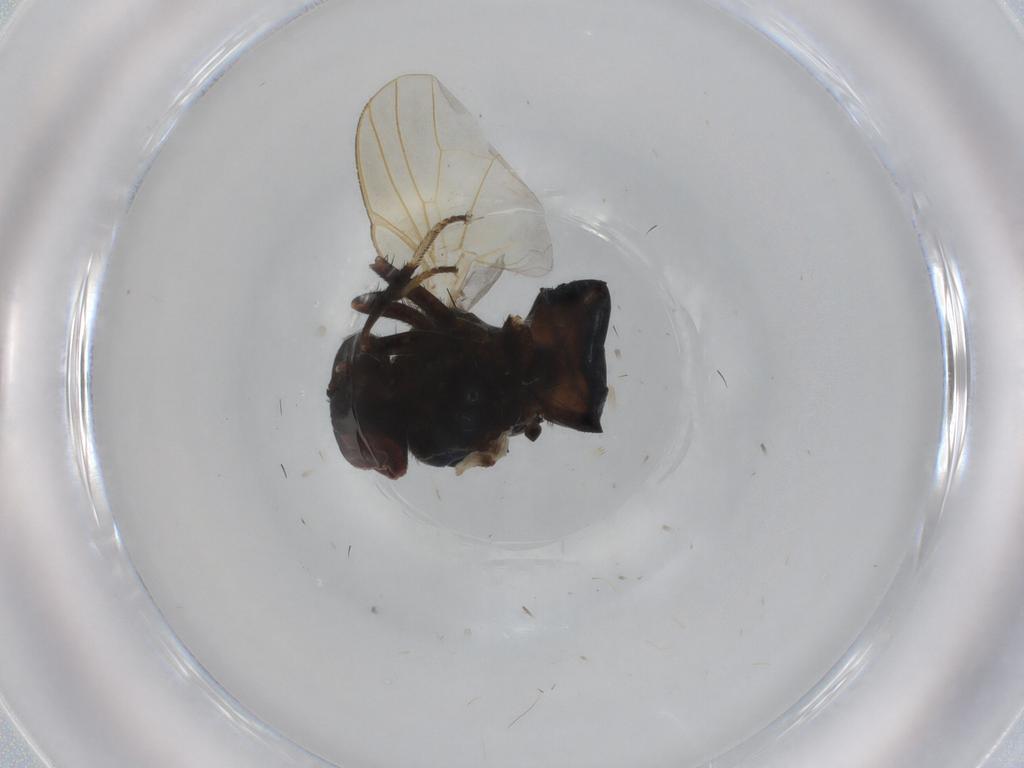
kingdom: Animalia
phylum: Arthropoda
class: Insecta
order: Diptera
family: Lonchaeidae
